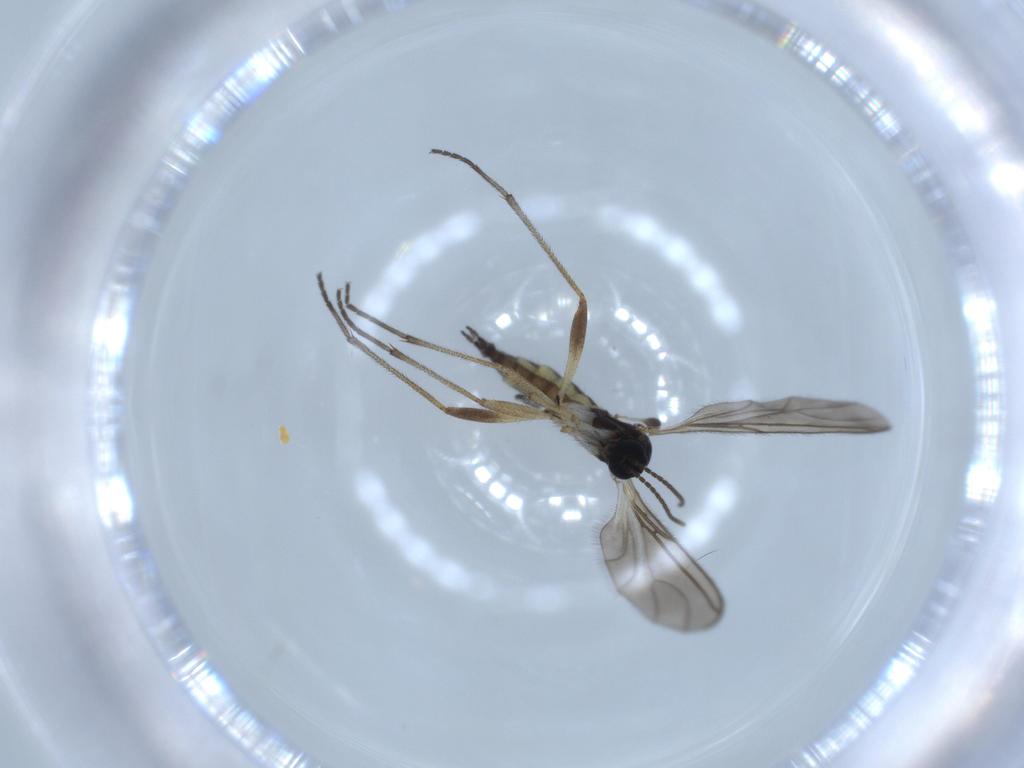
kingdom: Animalia
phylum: Arthropoda
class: Insecta
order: Diptera
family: Sciaridae
